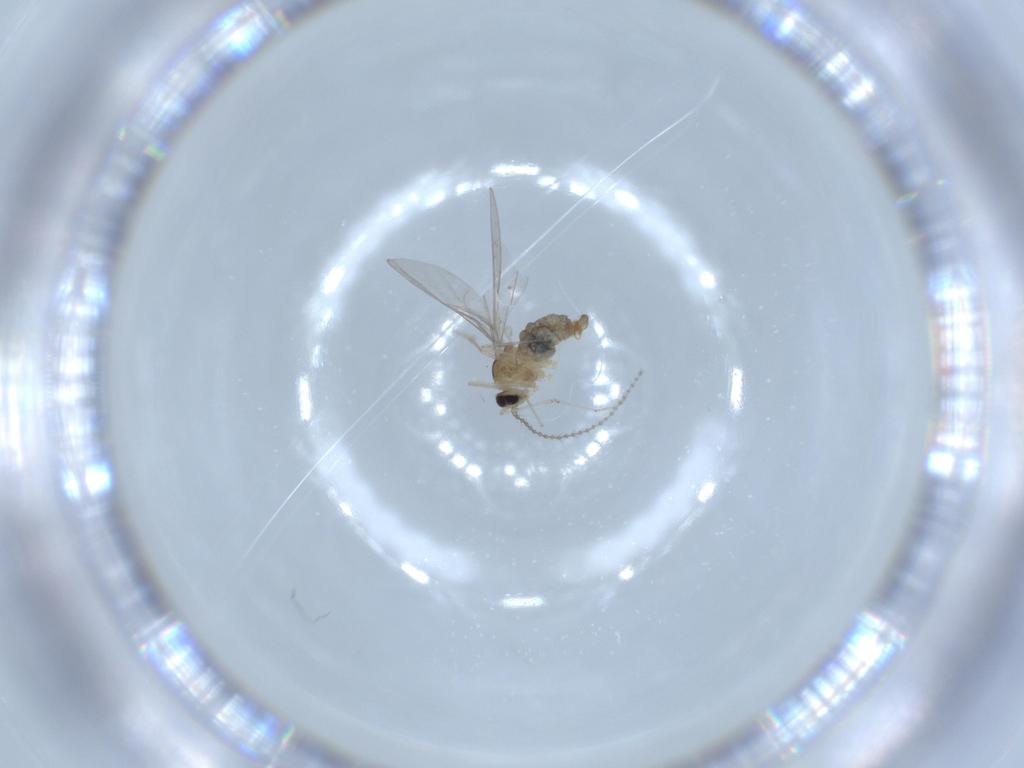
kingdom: Animalia
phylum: Arthropoda
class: Insecta
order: Diptera
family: Cecidomyiidae
